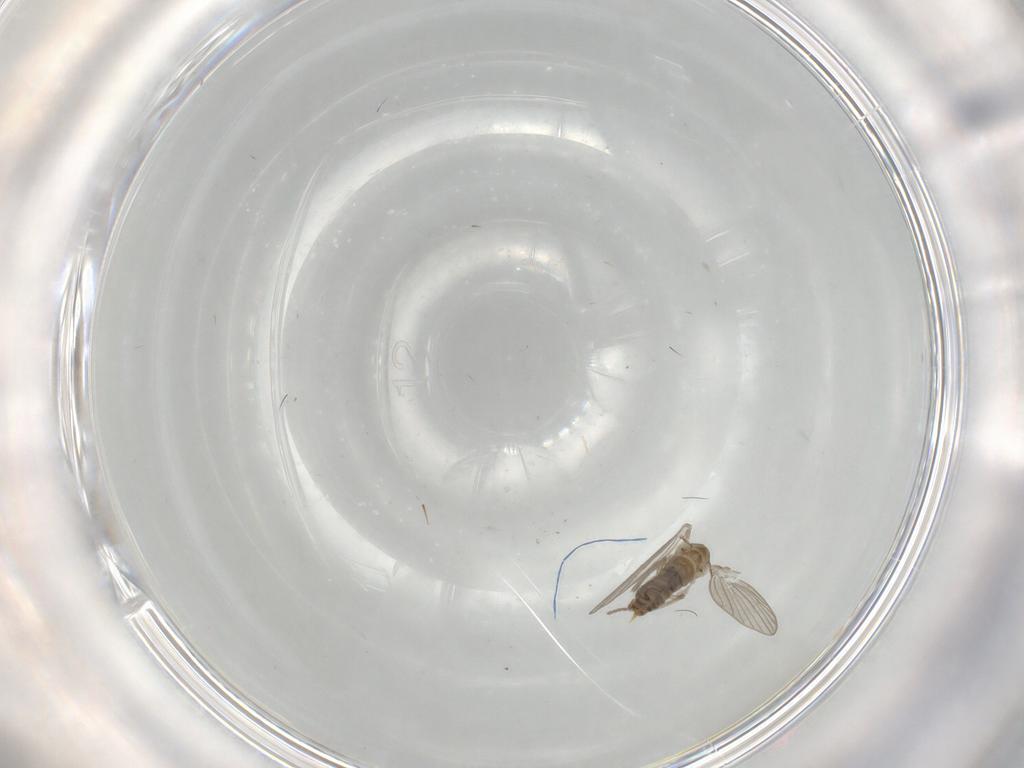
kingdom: Animalia
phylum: Arthropoda
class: Insecta
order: Diptera
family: Psychodidae
